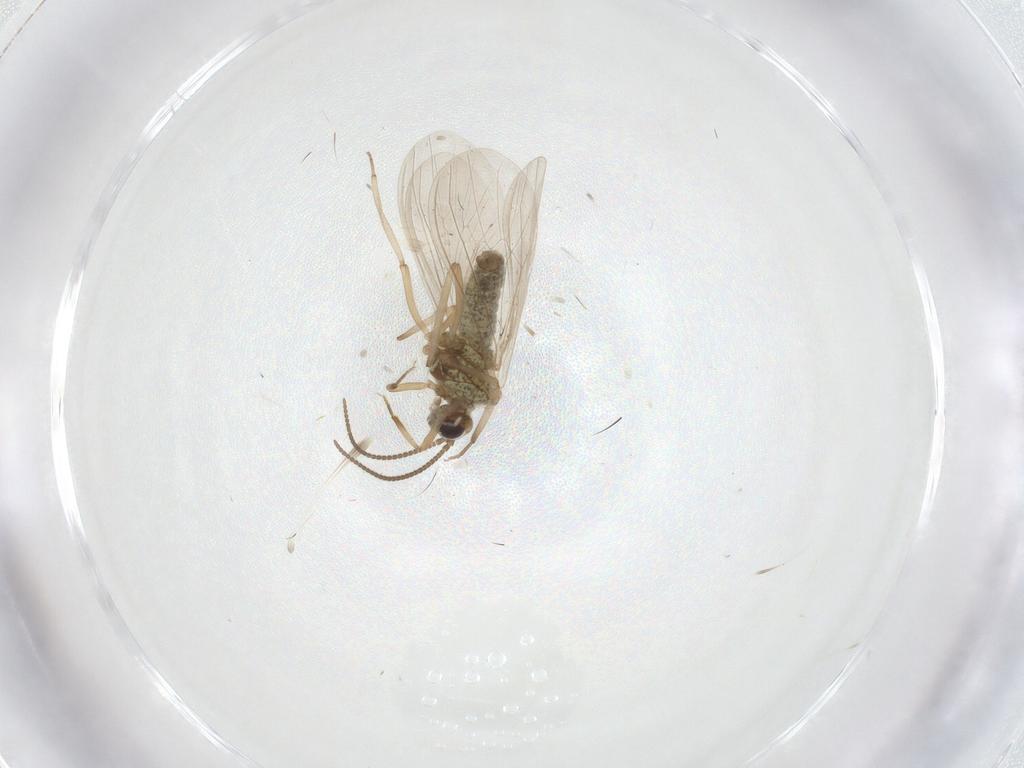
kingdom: Animalia
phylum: Arthropoda
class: Insecta
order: Neuroptera
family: Coniopterygidae
